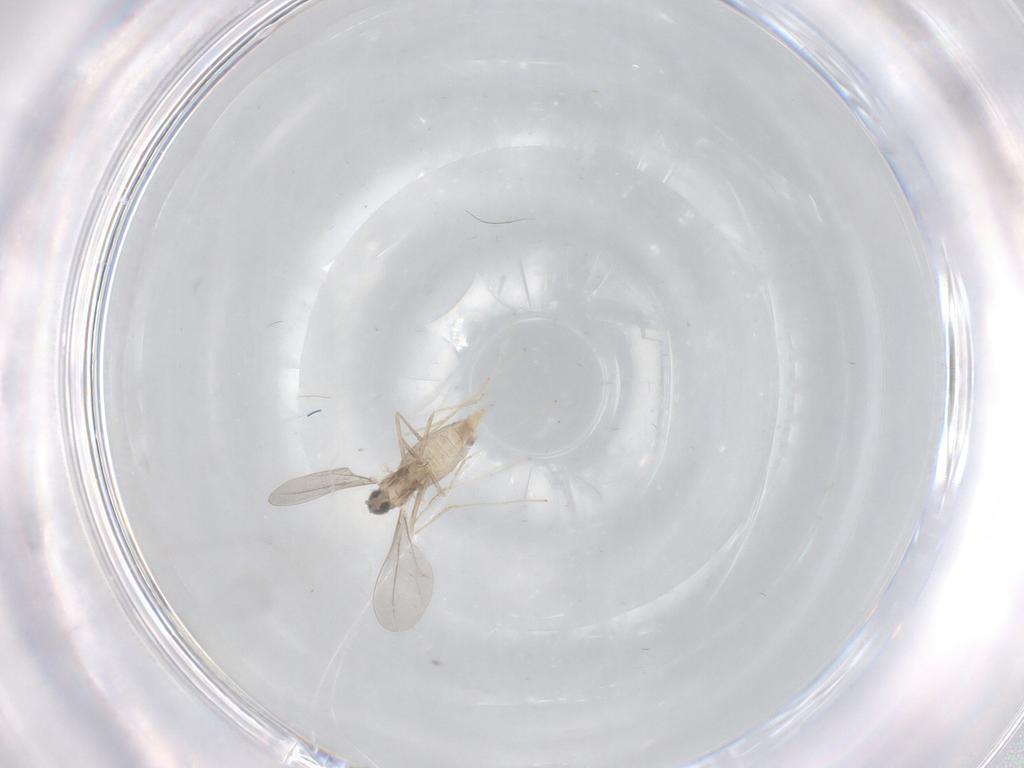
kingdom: Animalia
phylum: Arthropoda
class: Insecta
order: Diptera
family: Cecidomyiidae
